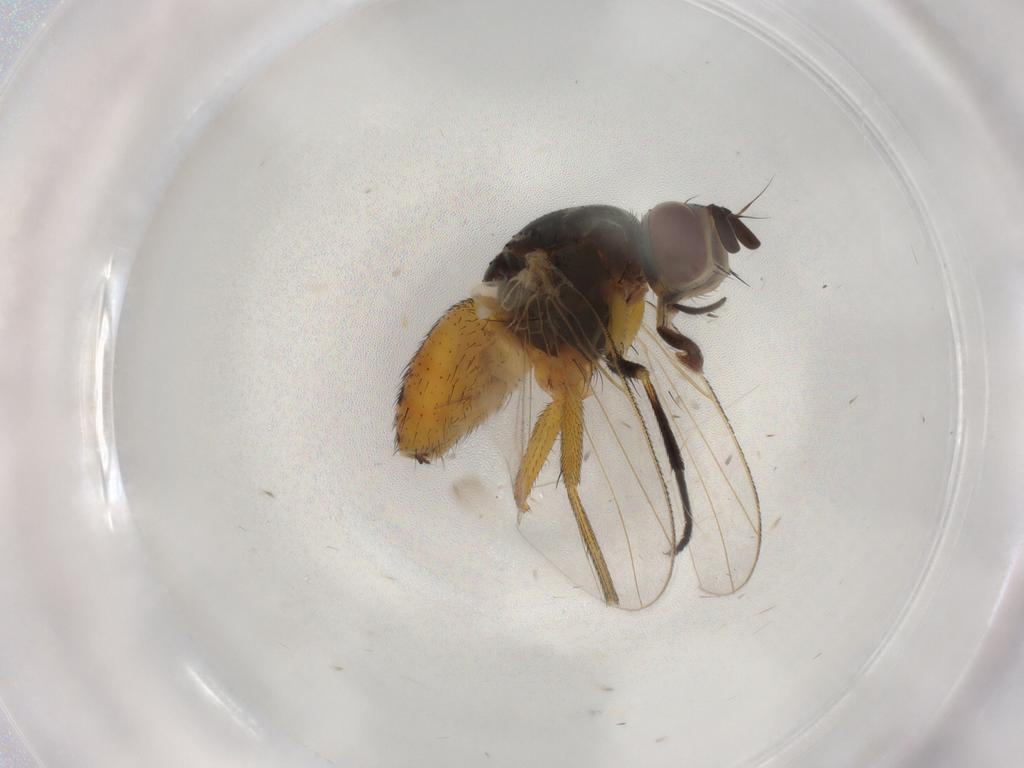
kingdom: Animalia
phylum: Arthropoda
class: Insecta
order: Diptera
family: Muscidae
